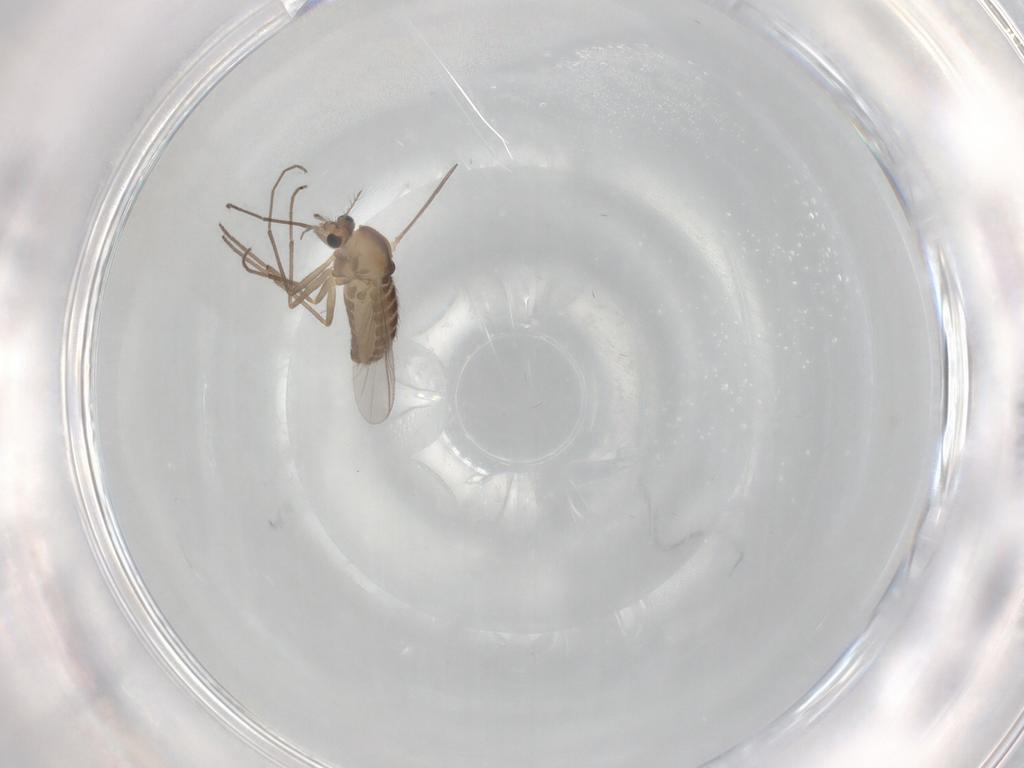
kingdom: Animalia
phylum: Arthropoda
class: Insecta
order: Diptera
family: Chironomidae
